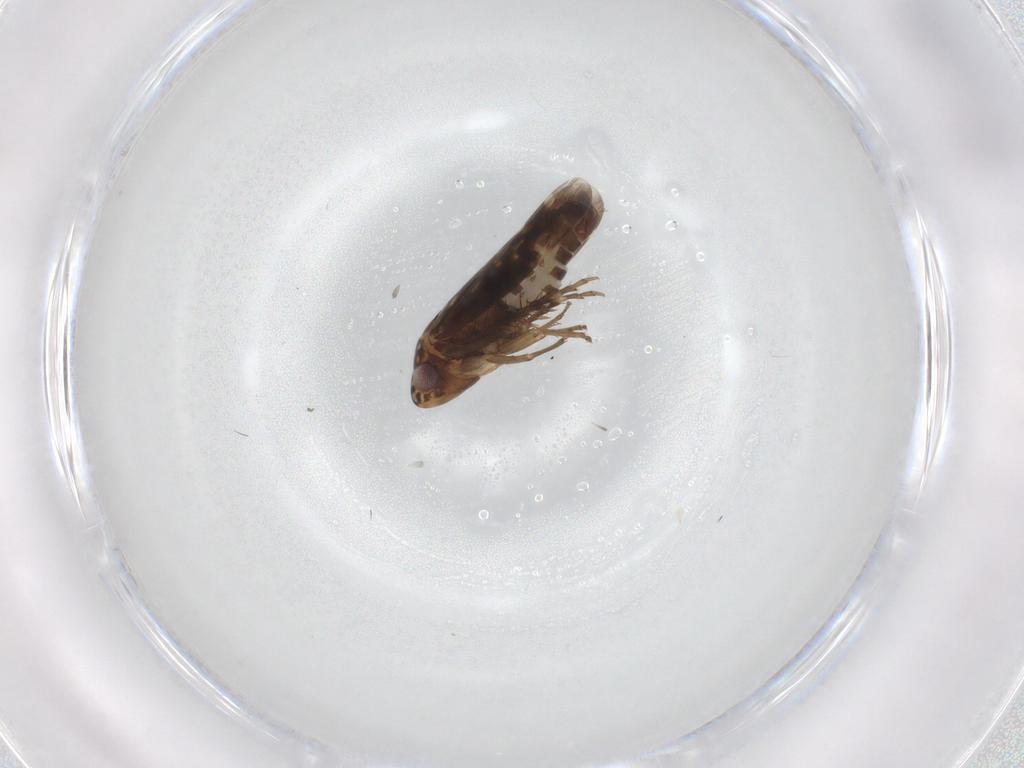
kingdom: Animalia
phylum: Arthropoda
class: Insecta
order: Hemiptera
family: Cicadellidae
